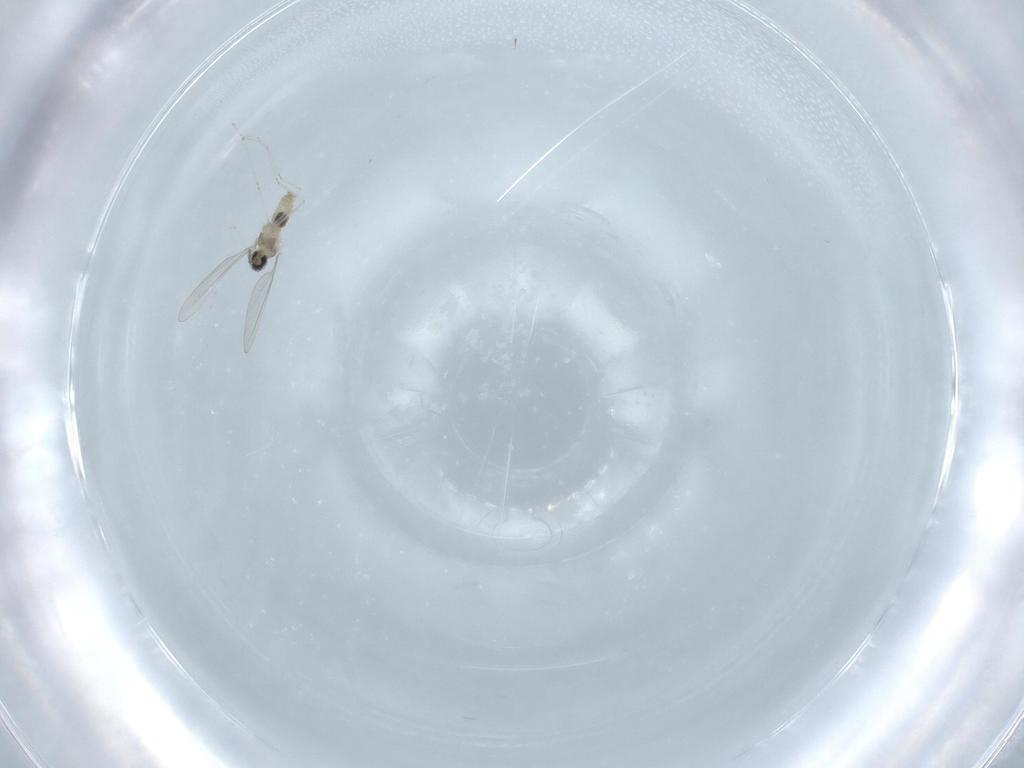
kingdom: Animalia
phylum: Arthropoda
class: Insecta
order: Diptera
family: Cecidomyiidae
